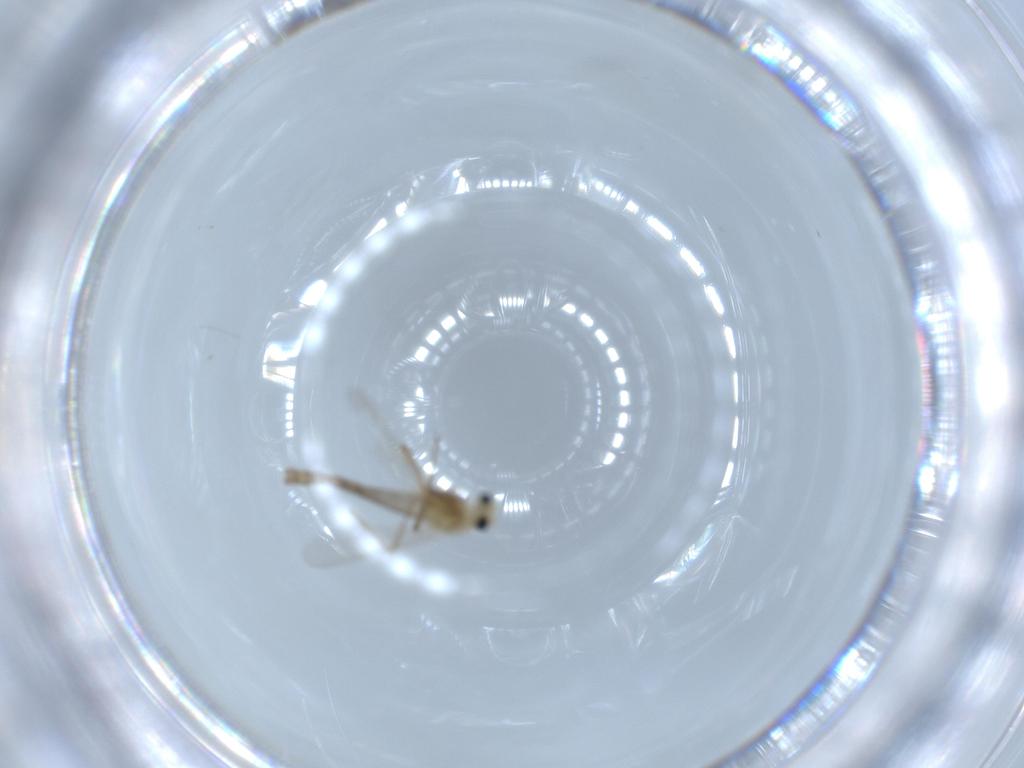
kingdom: Animalia
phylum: Arthropoda
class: Insecta
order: Diptera
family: Chironomidae
